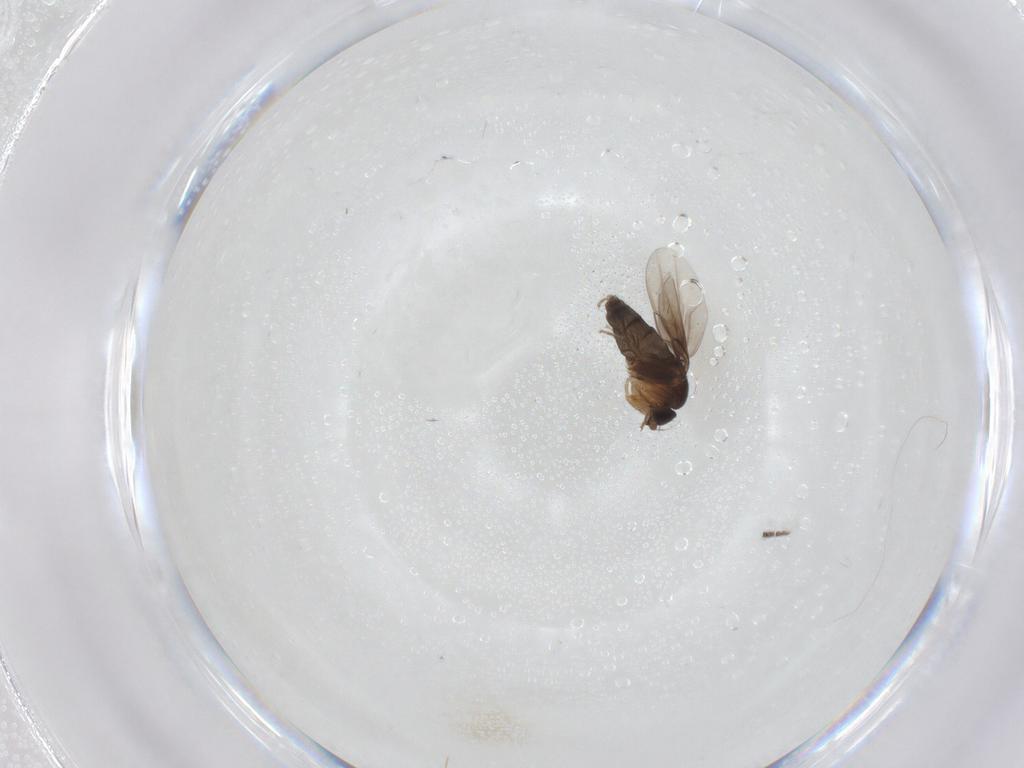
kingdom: Animalia
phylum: Arthropoda
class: Insecta
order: Diptera
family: Phoridae
